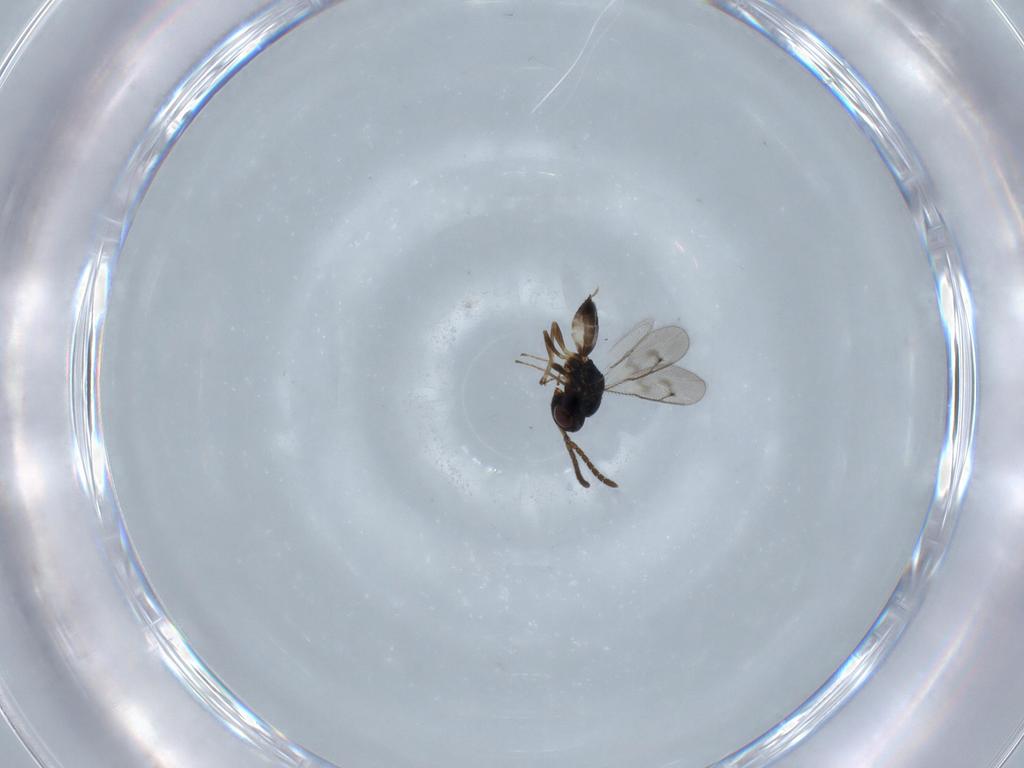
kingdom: Animalia
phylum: Arthropoda
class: Insecta
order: Hymenoptera
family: Pteromalidae
